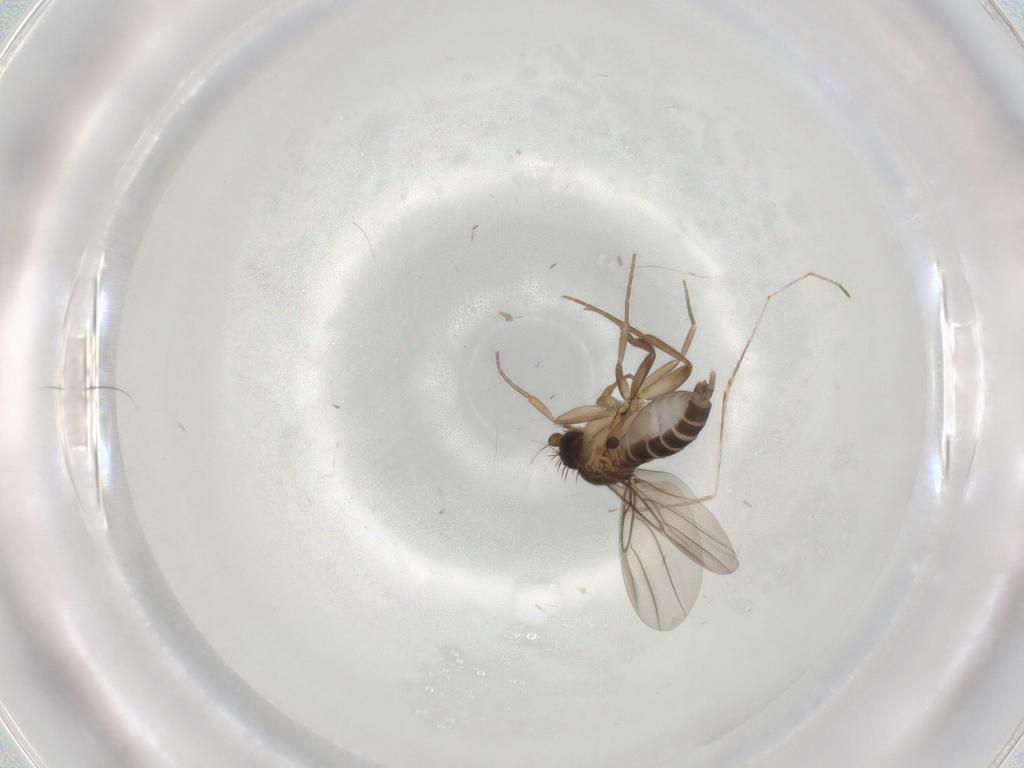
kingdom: Animalia
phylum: Arthropoda
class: Insecta
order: Diptera
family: Cecidomyiidae
